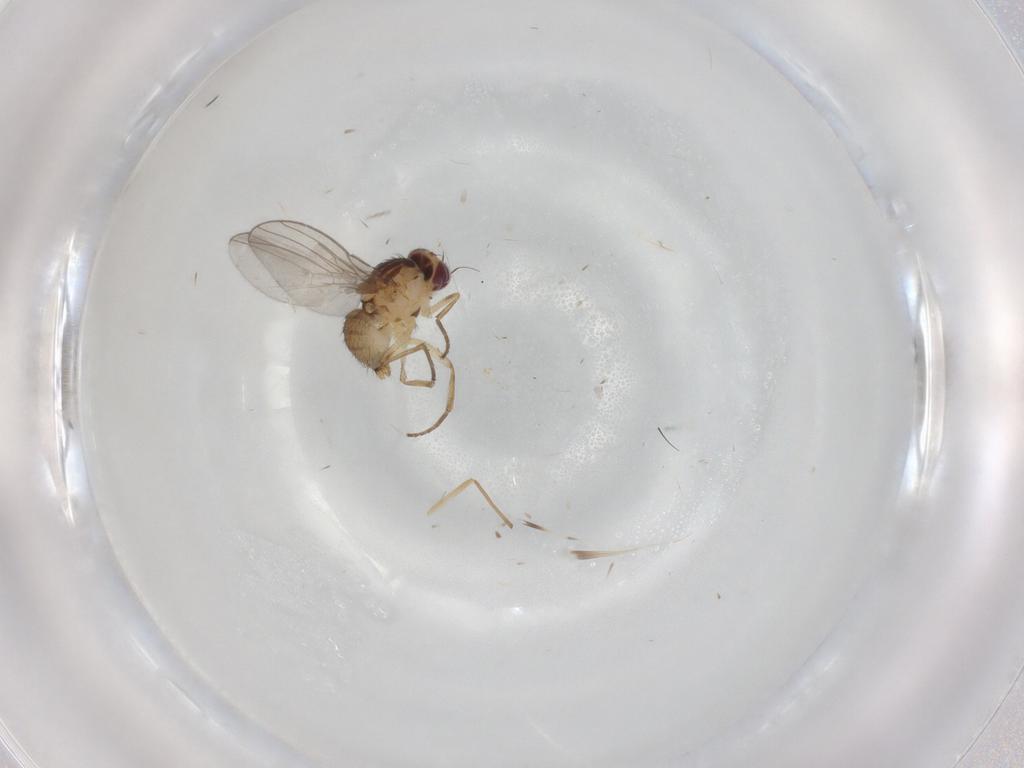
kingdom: Animalia
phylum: Arthropoda
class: Insecta
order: Diptera
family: Agromyzidae
